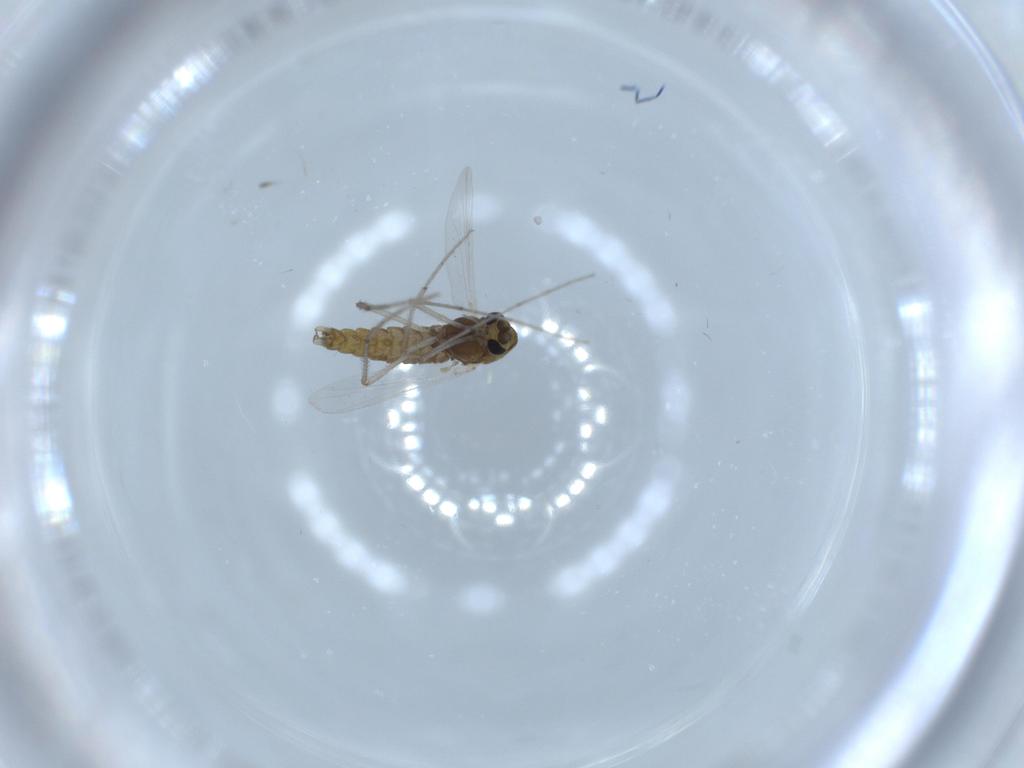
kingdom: Animalia
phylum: Arthropoda
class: Insecta
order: Diptera
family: Chironomidae
